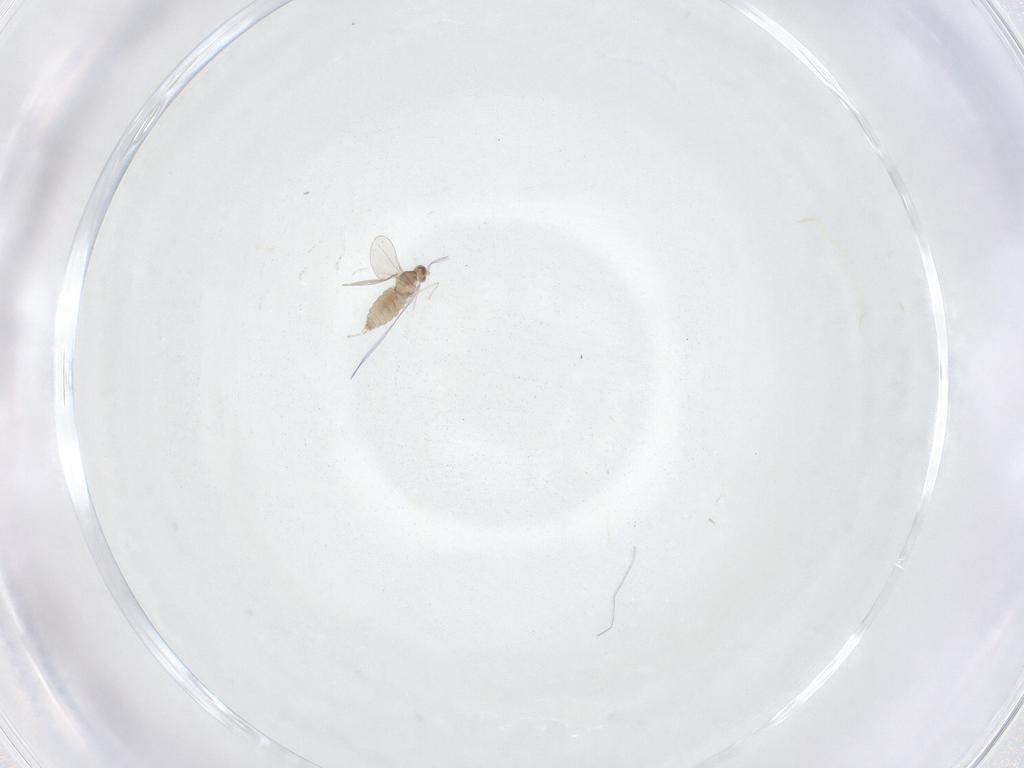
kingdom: Animalia
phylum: Arthropoda
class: Insecta
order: Diptera
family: Cecidomyiidae
